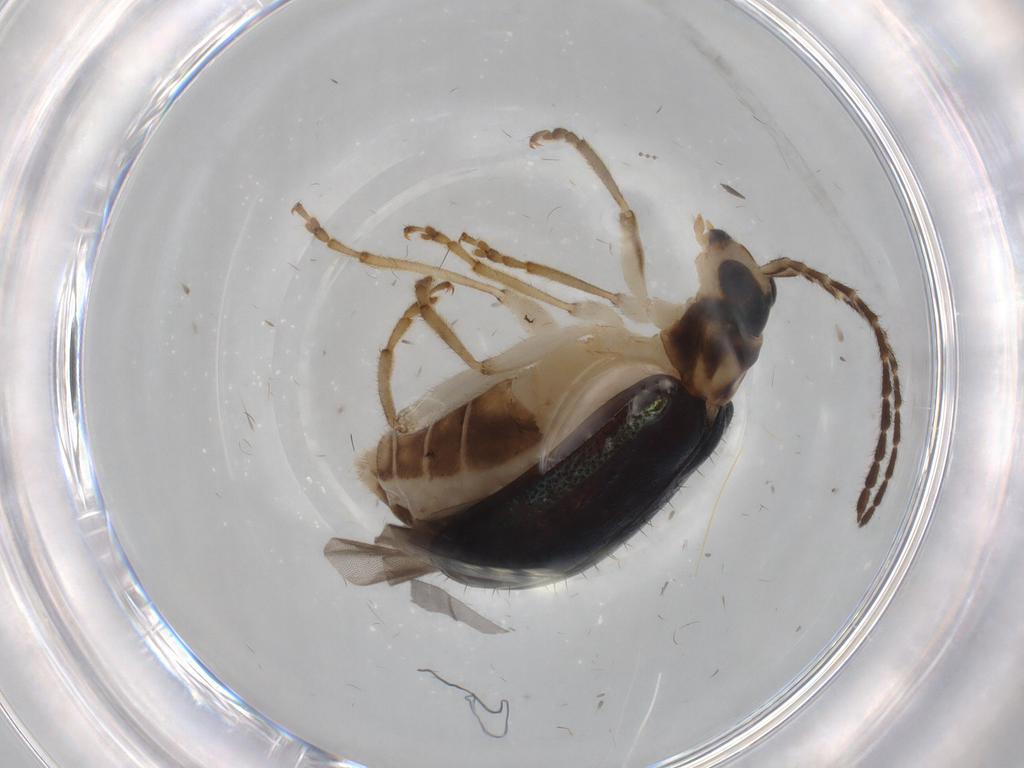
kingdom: Animalia
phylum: Arthropoda
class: Insecta
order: Coleoptera
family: Chrysomelidae
